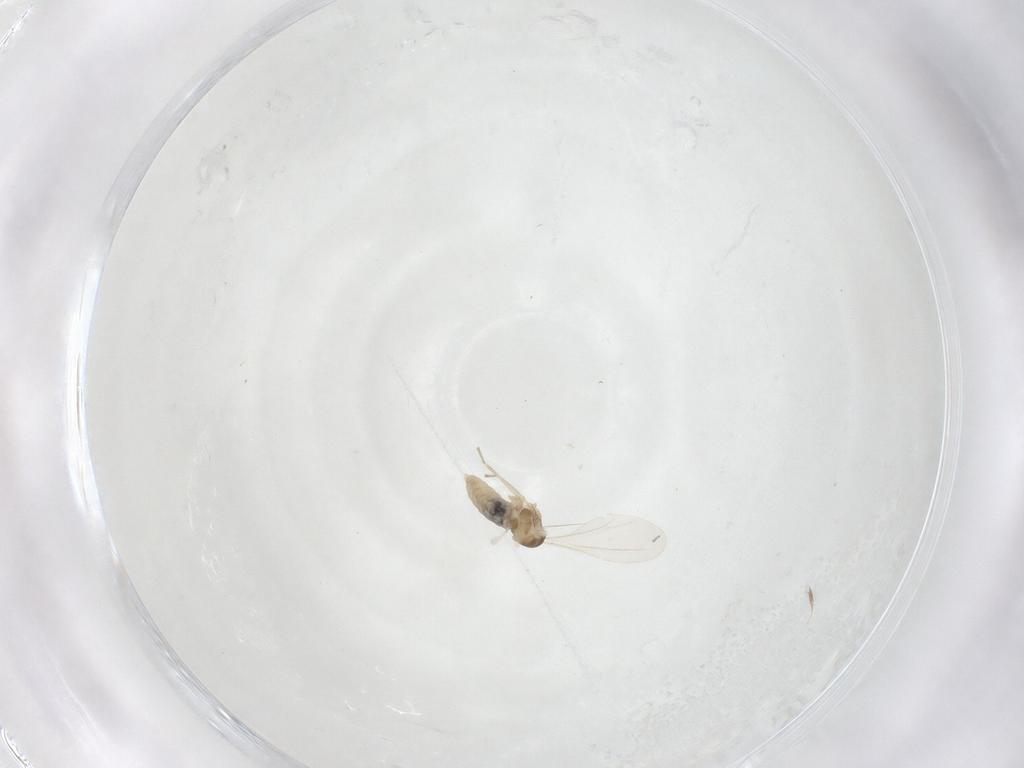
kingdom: Animalia
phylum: Arthropoda
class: Insecta
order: Diptera
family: Cecidomyiidae
